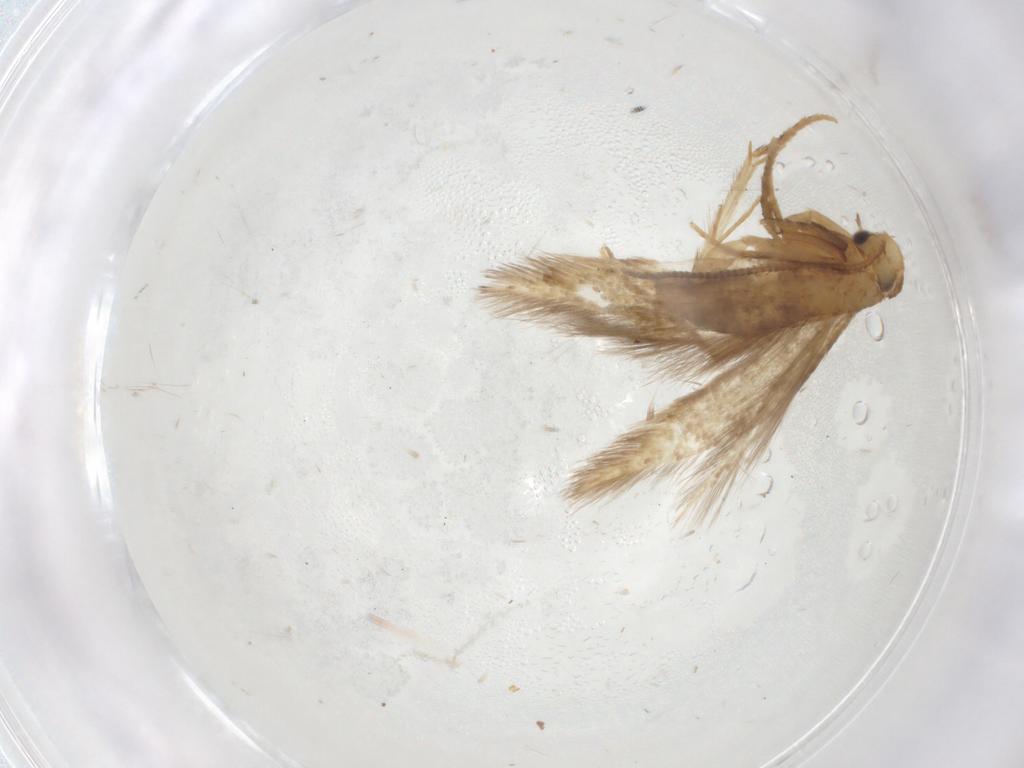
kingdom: Animalia
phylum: Arthropoda
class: Insecta
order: Lepidoptera
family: Tineidae
